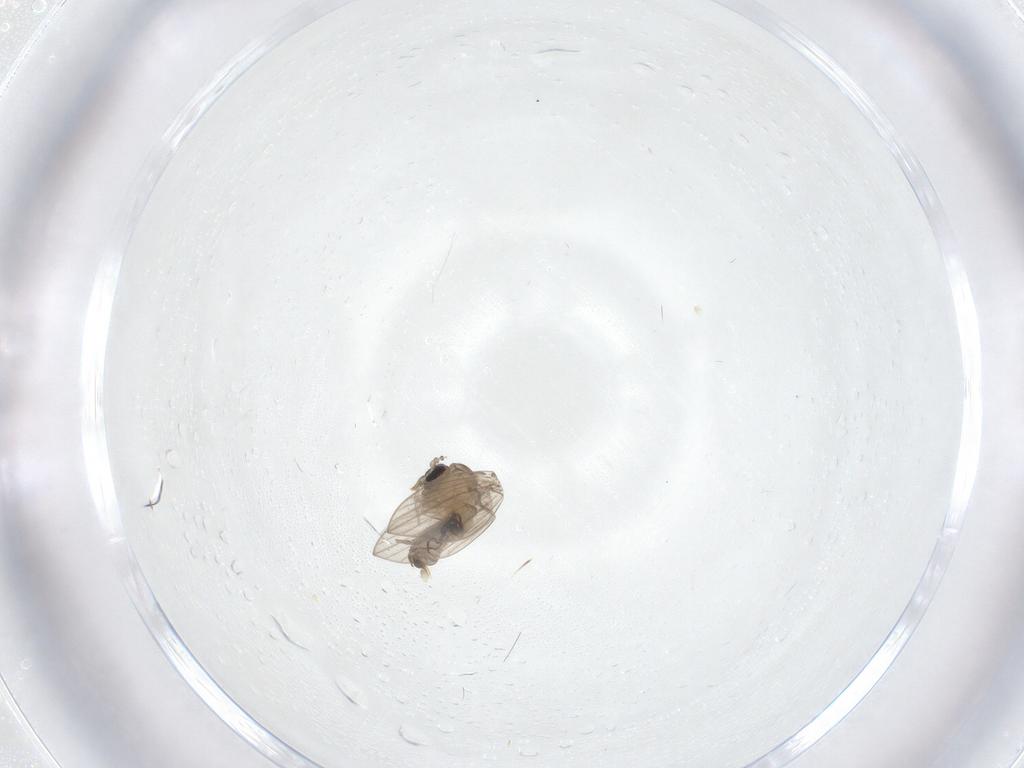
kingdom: Animalia
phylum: Arthropoda
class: Insecta
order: Diptera
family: Psychodidae
